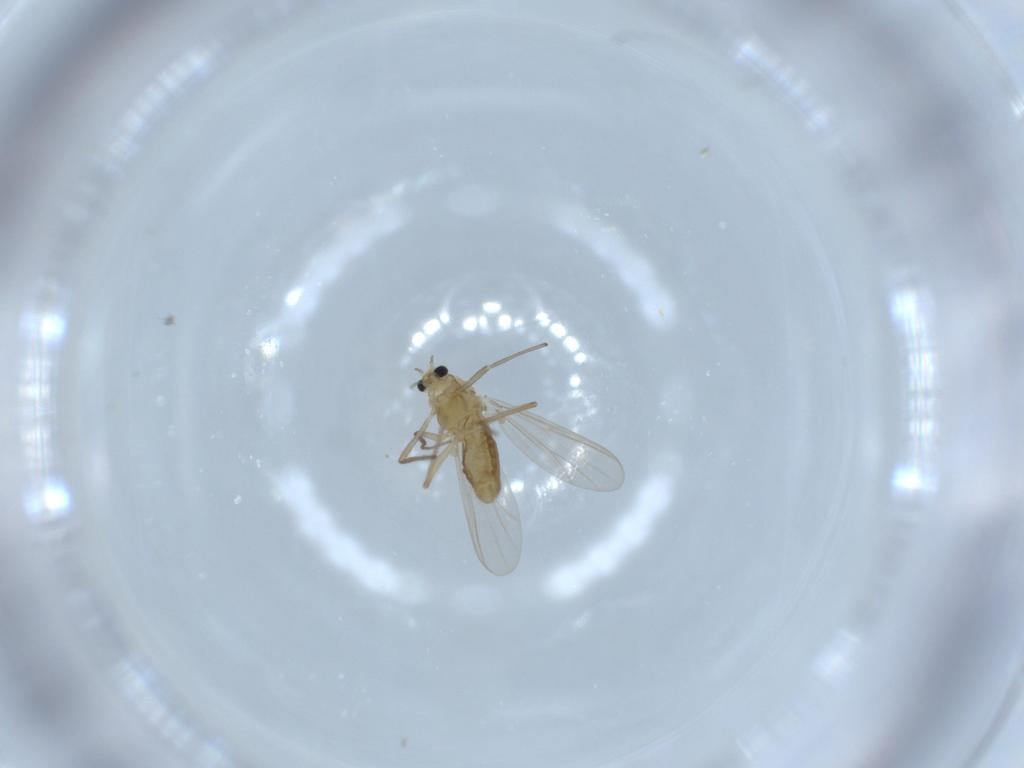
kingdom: Animalia
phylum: Arthropoda
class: Insecta
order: Diptera
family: Chironomidae
